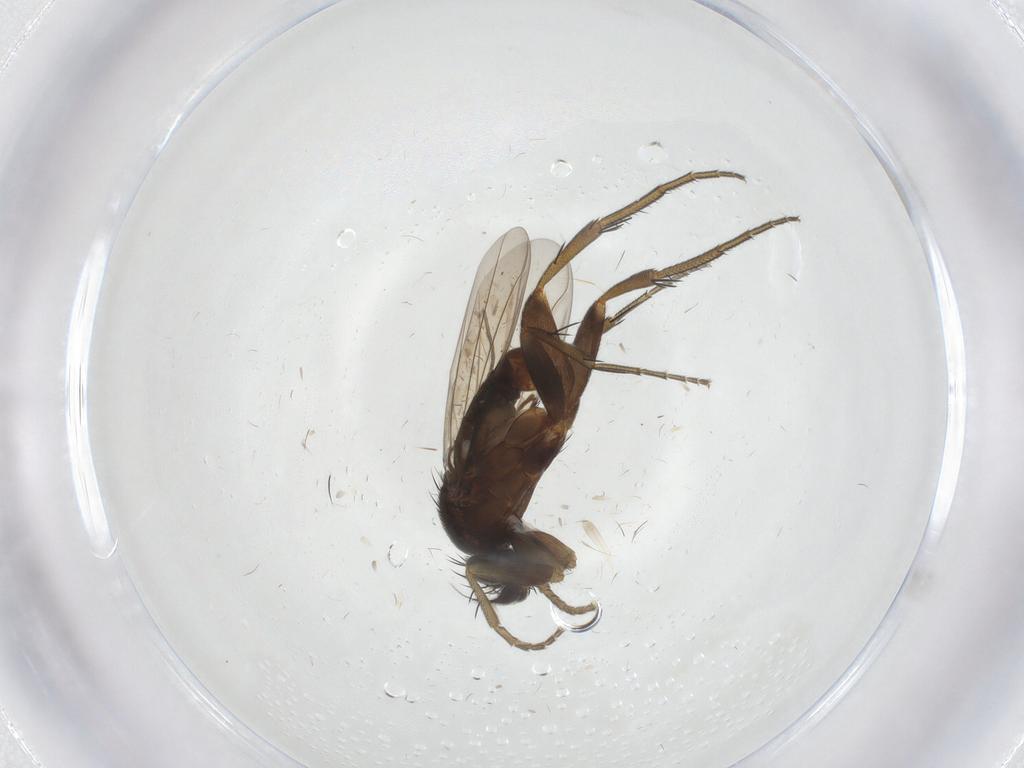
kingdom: Animalia
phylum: Arthropoda
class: Insecta
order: Diptera
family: Phoridae
